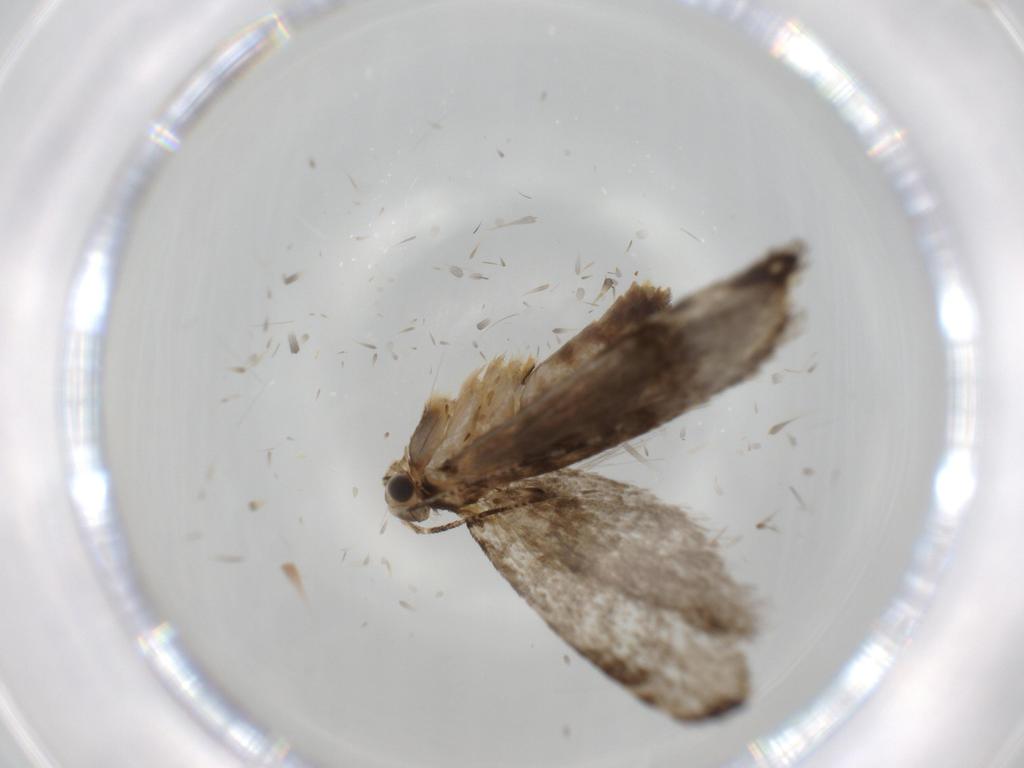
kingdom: Animalia
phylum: Arthropoda
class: Insecta
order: Lepidoptera
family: Tineidae
